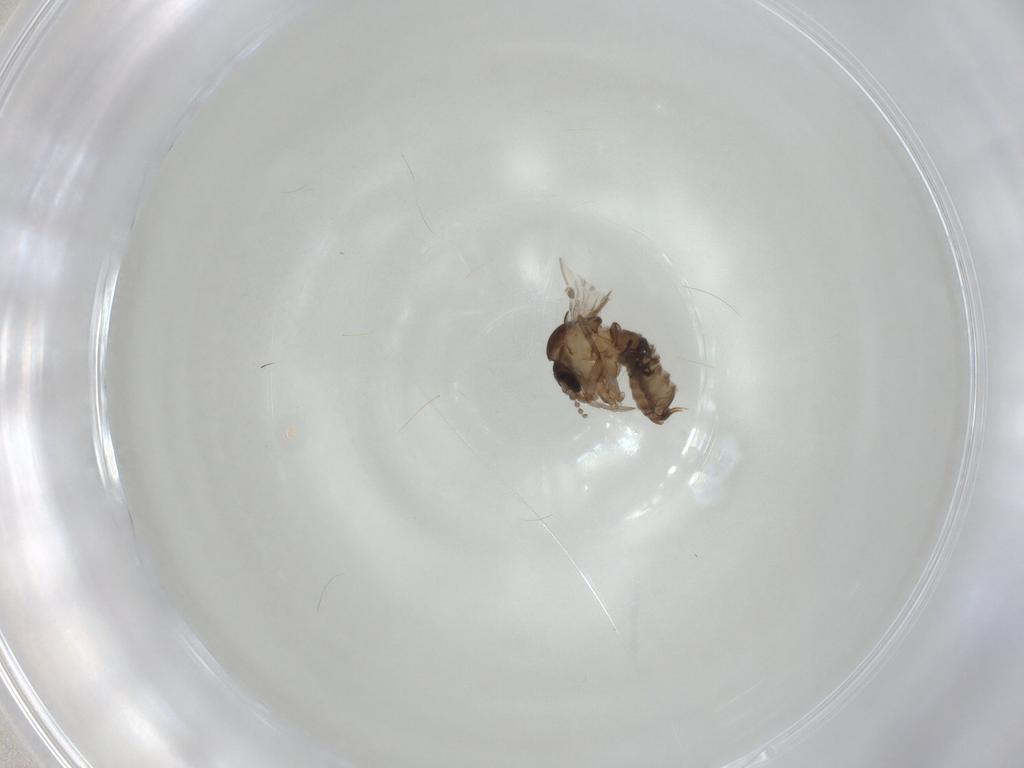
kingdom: Animalia
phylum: Arthropoda
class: Insecta
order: Diptera
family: Psychodidae
